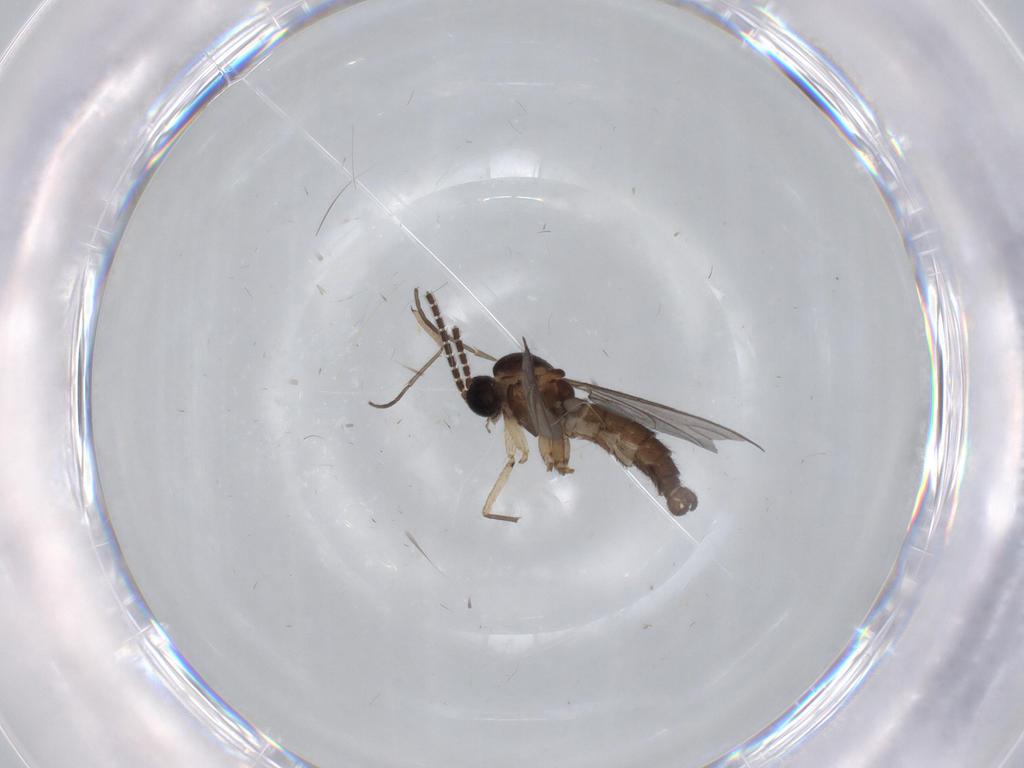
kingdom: Animalia
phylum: Arthropoda
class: Insecta
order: Diptera
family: Sciaridae
